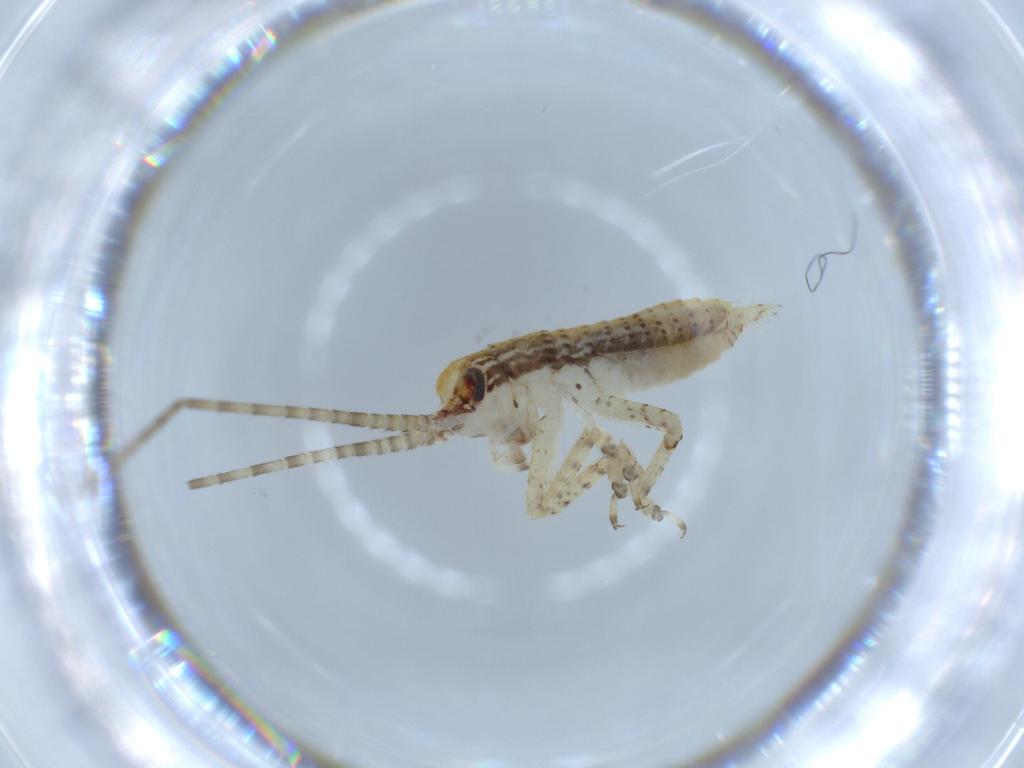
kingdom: Animalia
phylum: Arthropoda
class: Insecta
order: Orthoptera
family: Gryllidae
